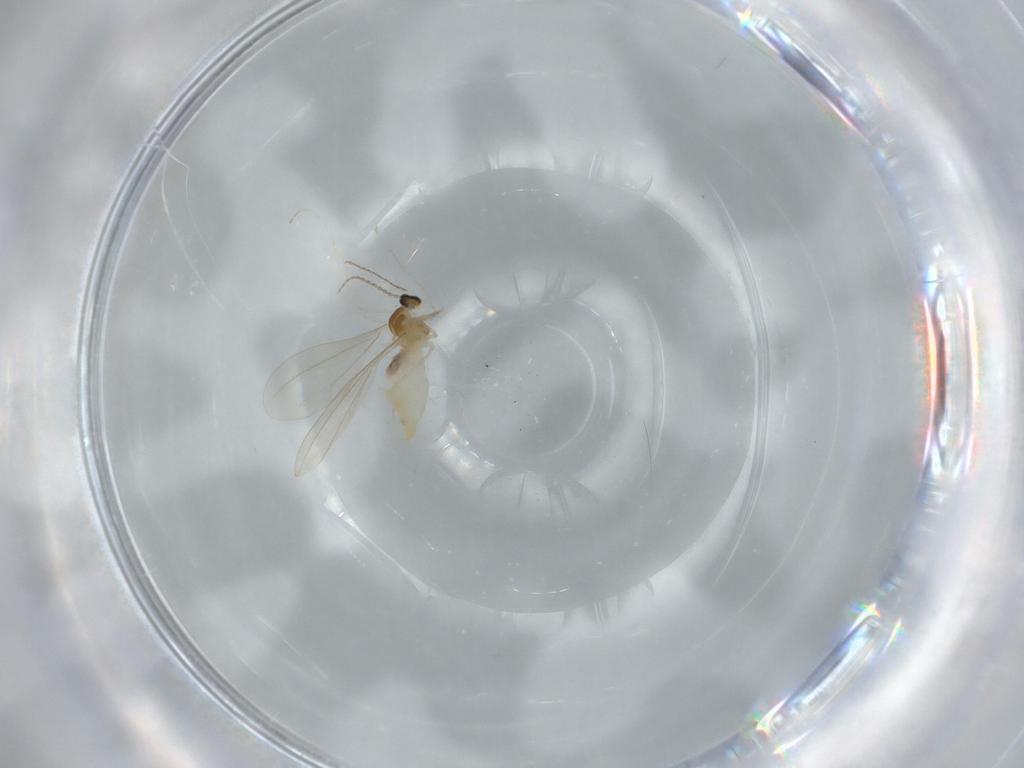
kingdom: Animalia
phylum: Arthropoda
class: Insecta
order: Diptera
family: Cecidomyiidae
